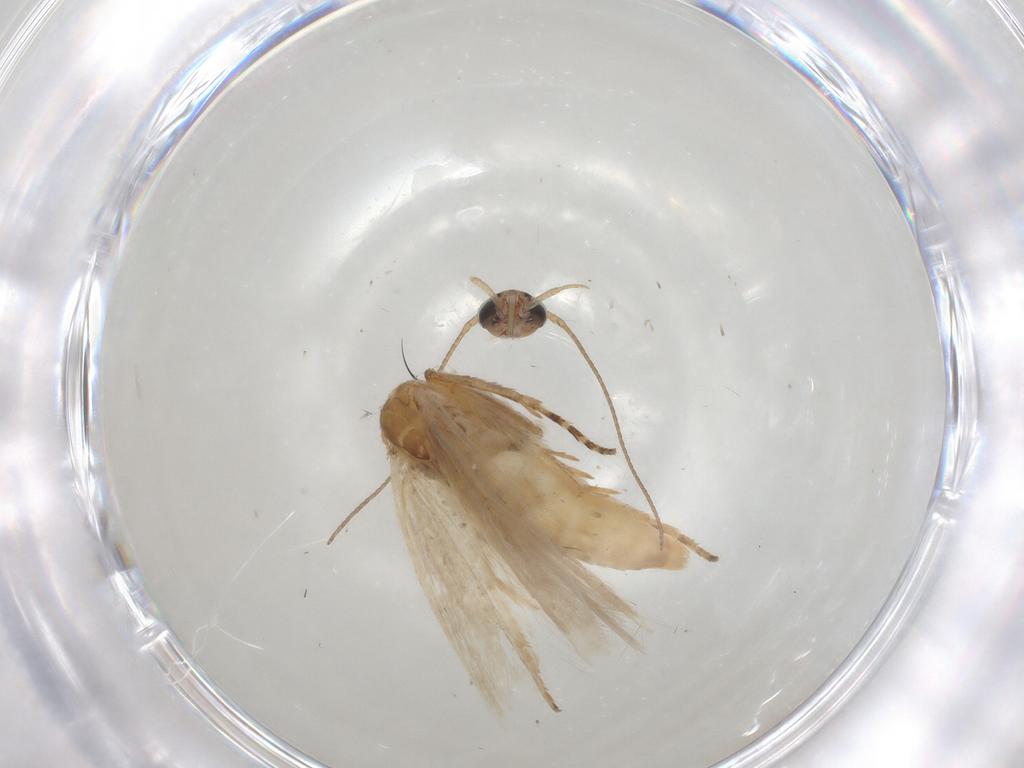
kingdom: Animalia
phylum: Arthropoda
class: Insecta
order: Lepidoptera
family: Gelechiidae
